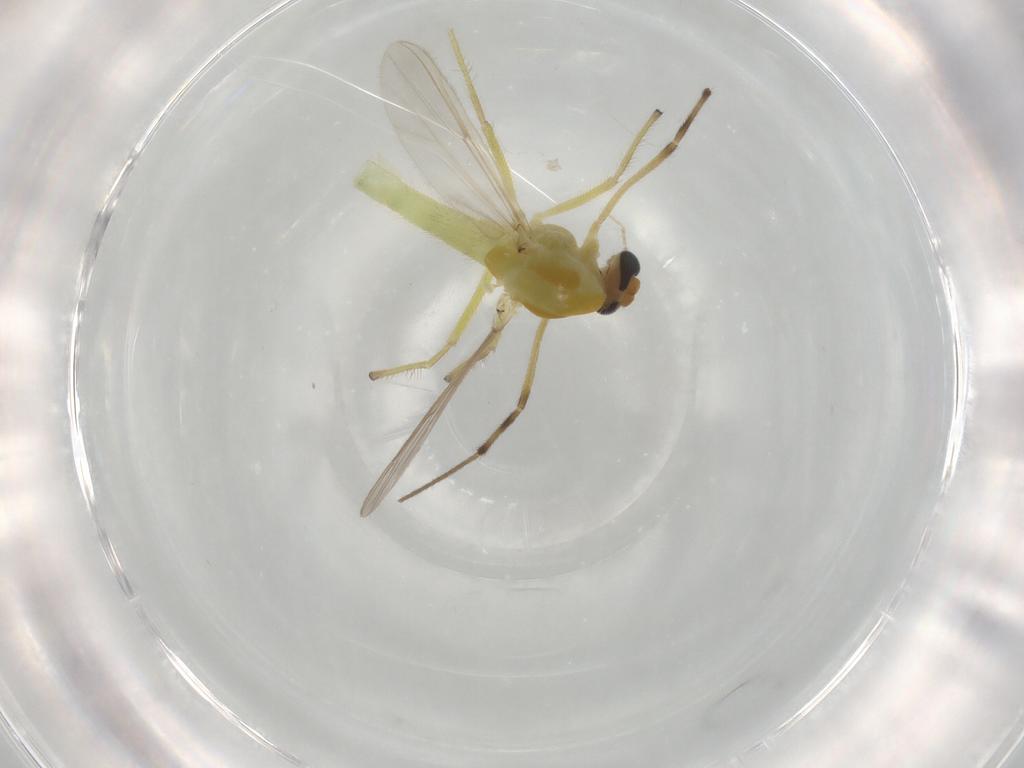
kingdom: Animalia
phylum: Arthropoda
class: Insecta
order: Diptera
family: Chironomidae
